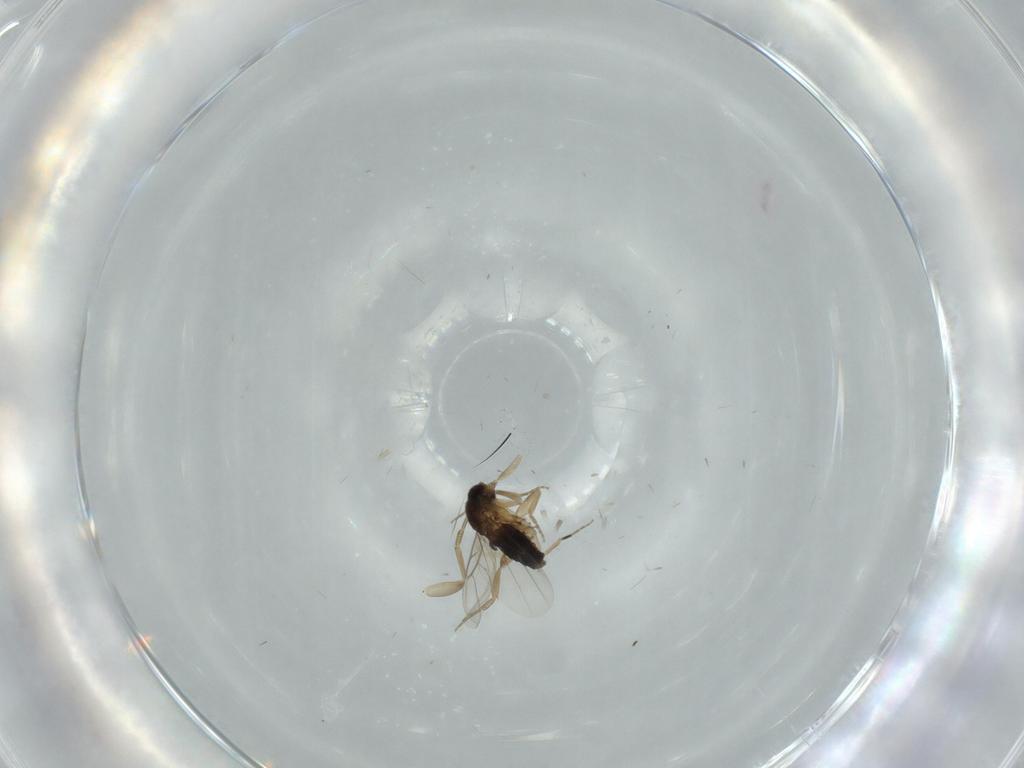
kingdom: Animalia
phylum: Arthropoda
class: Insecta
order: Diptera
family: Phoridae
